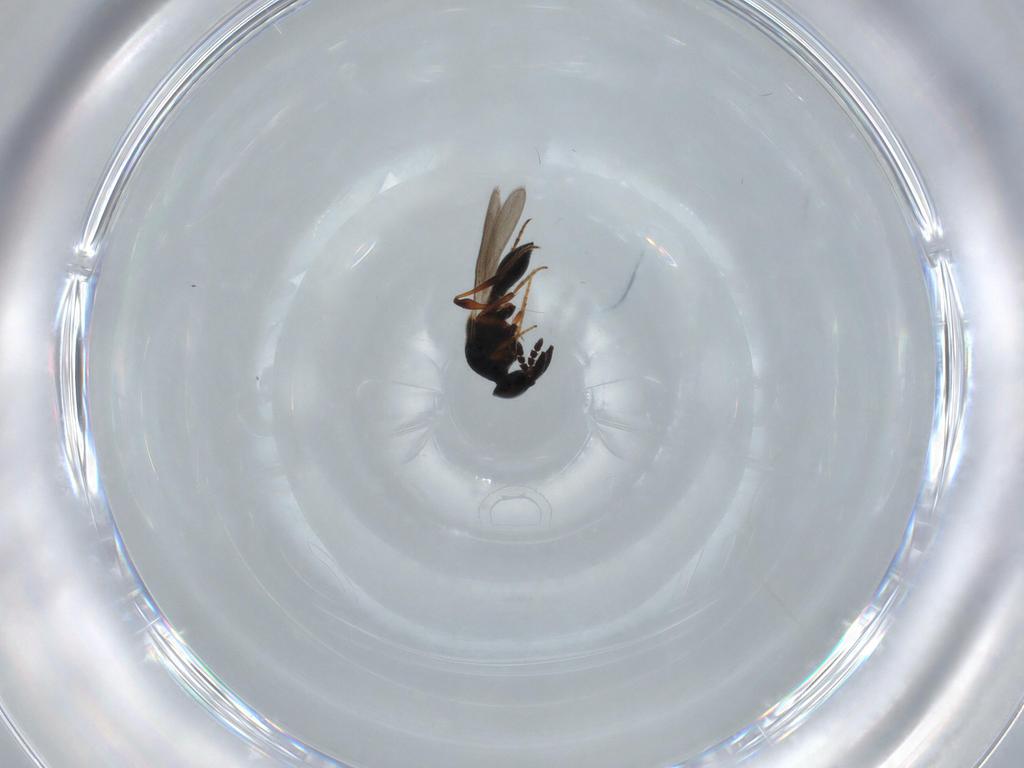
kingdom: Animalia
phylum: Arthropoda
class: Insecta
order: Hymenoptera
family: Platygastridae
